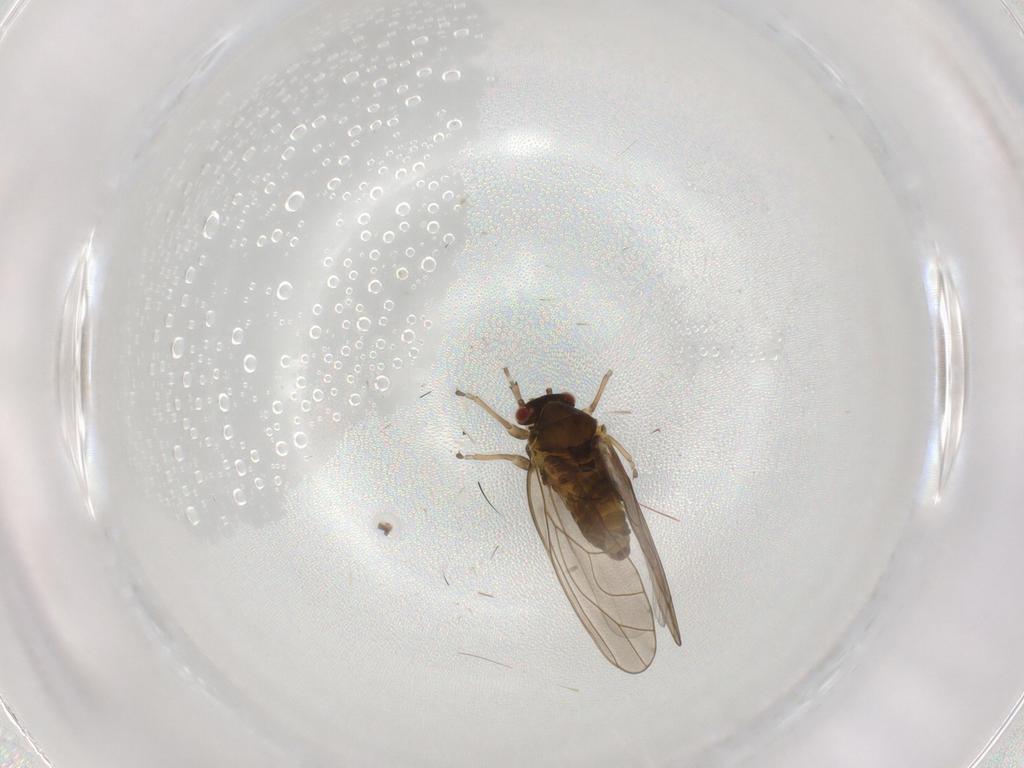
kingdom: Animalia
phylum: Arthropoda
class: Insecta
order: Hemiptera
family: Psylloidea_incertae_sedis
